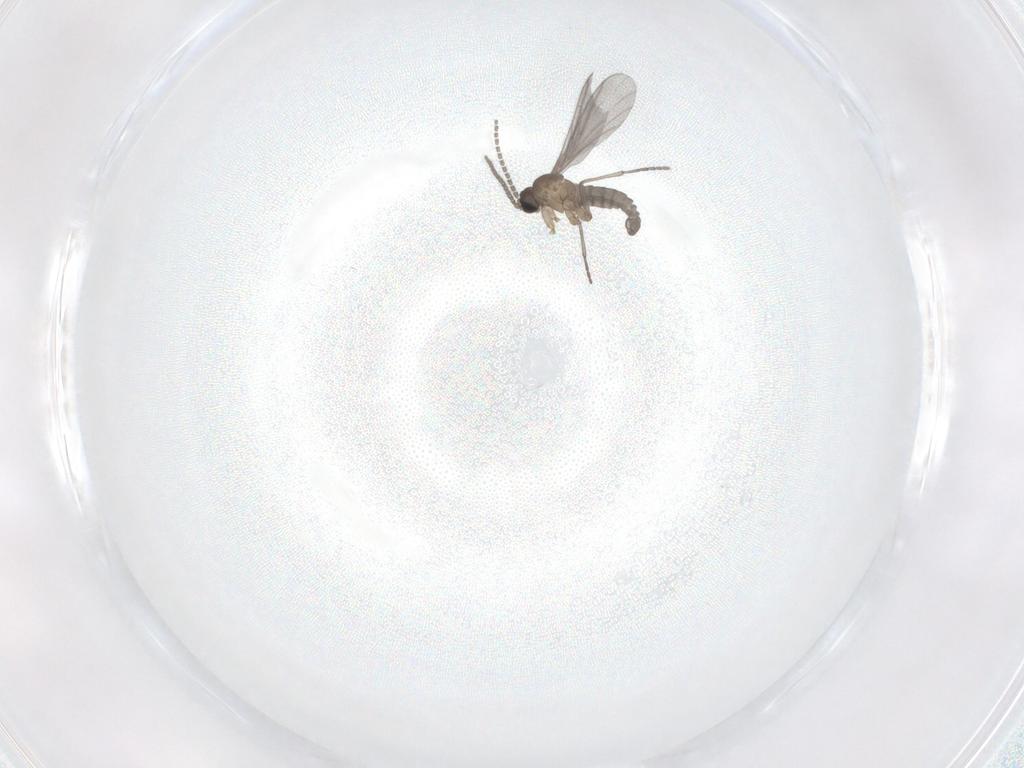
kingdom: Animalia
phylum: Arthropoda
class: Insecta
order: Diptera
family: Sciaridae
